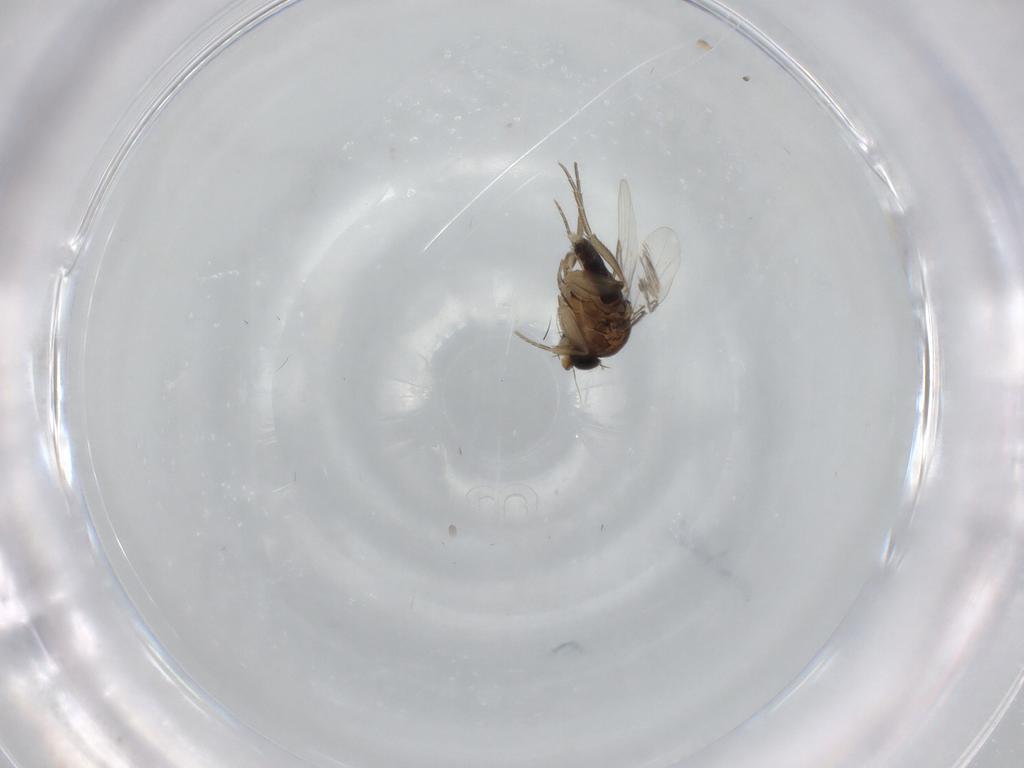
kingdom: Animalia
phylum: Arthropoda
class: Insecta
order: Diptera
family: Phoridae
